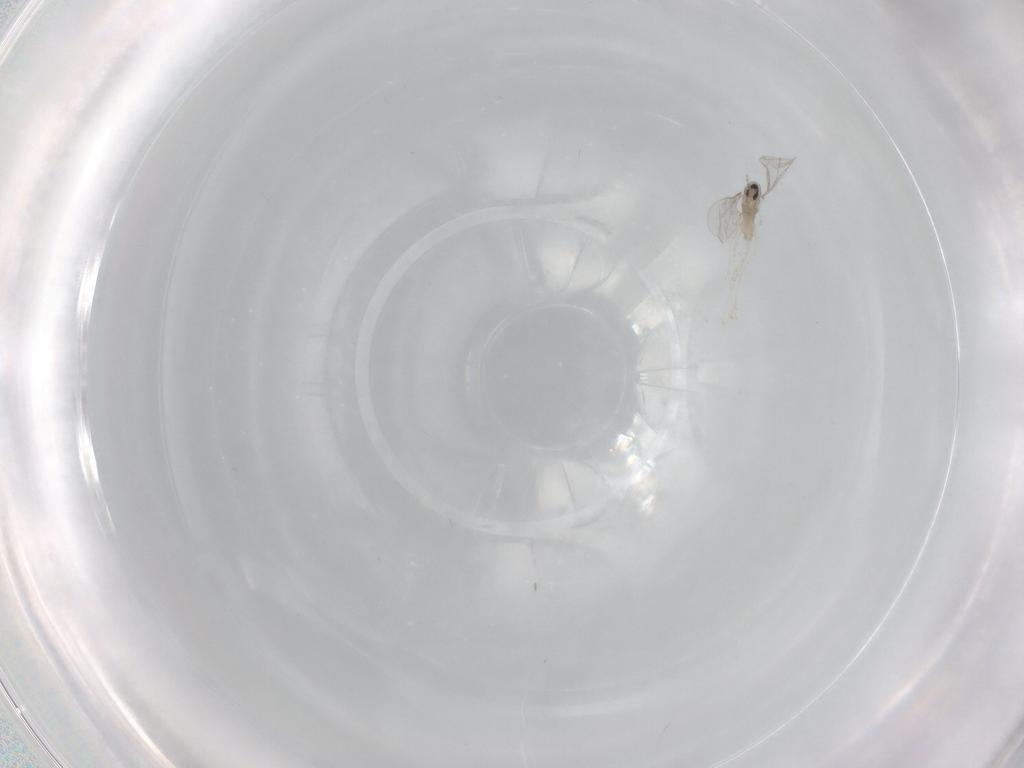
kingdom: Animalia
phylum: Arthropoda
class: Insecta
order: Diptera
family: Cecidomyiidae
